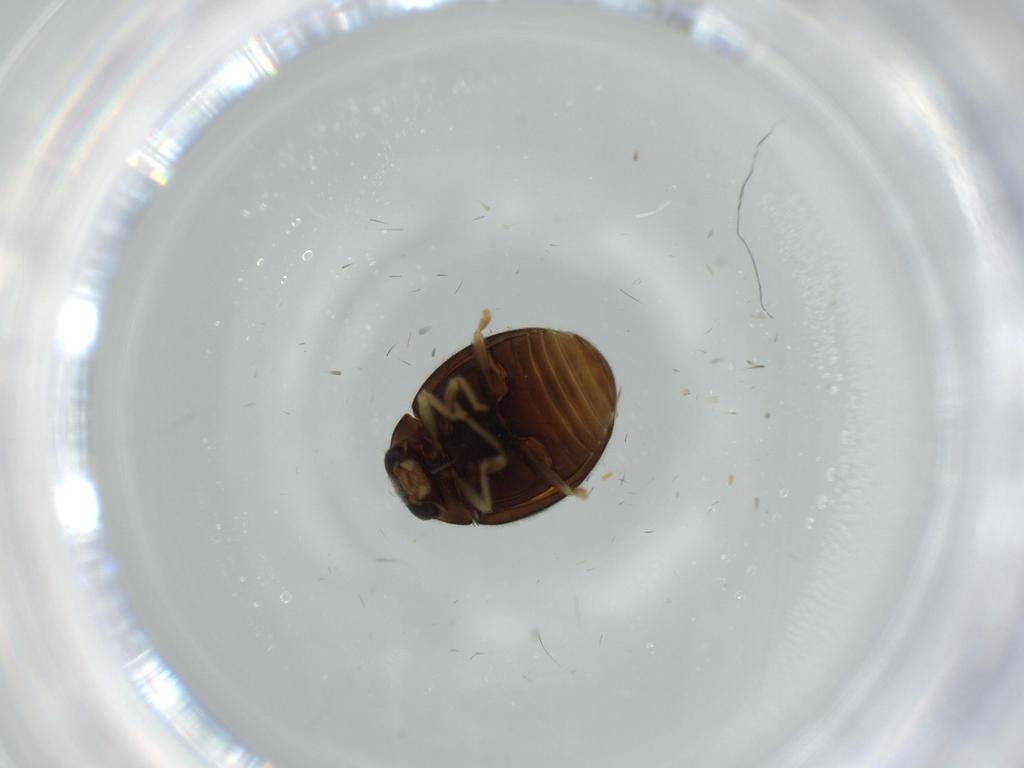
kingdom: Animalia
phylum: Arthropoda
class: Insecta
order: Coleoptera
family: Coccinellidae
